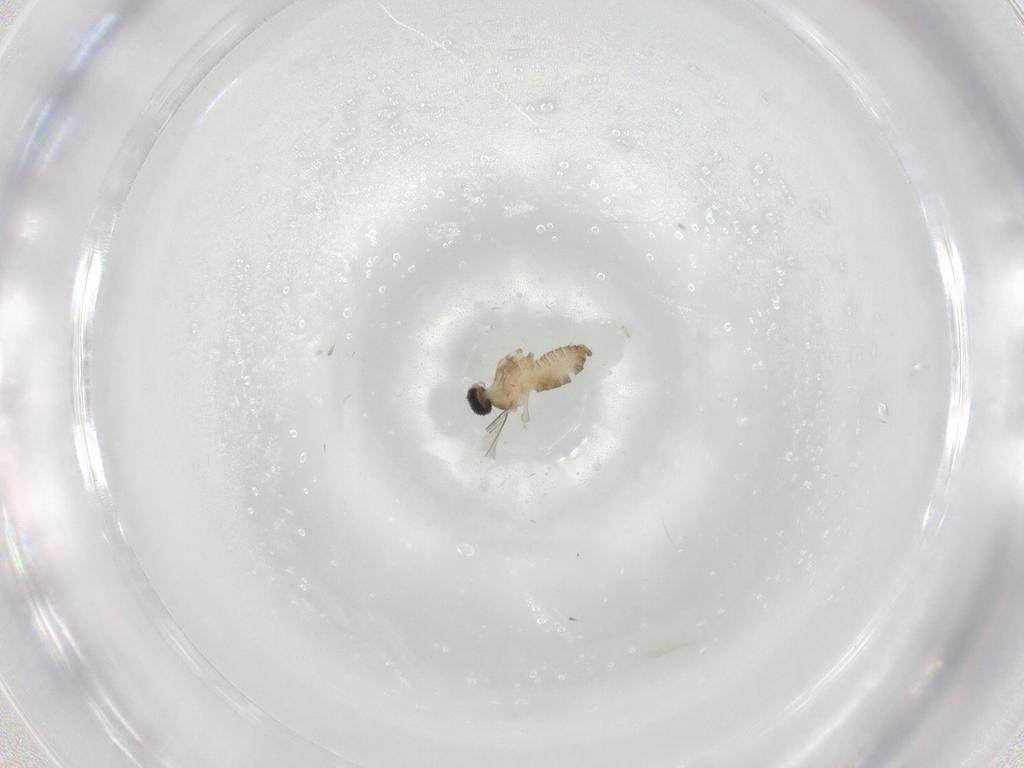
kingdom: Animalia
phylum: Arthropoda
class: Insecta
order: Diptera
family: Cecidomyiidae
